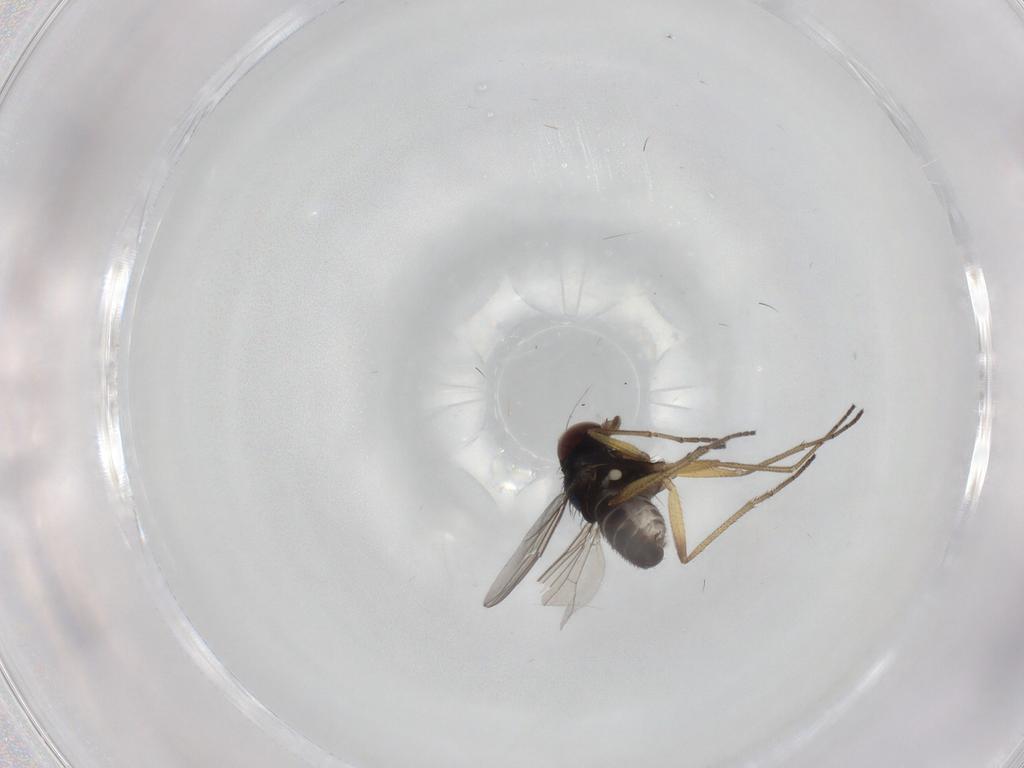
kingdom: Animalia
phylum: Arthropoda
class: Insecta
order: Diptera
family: Dolichopodidae
